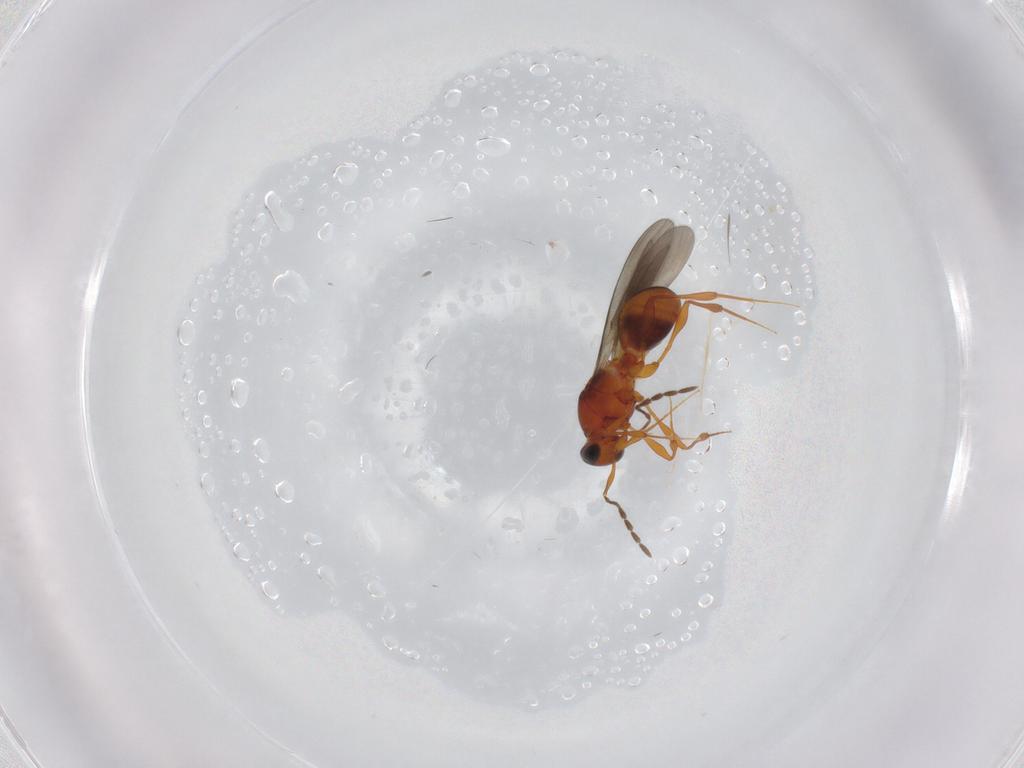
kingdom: Animalia
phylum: Arthropoda
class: Insecta
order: Hymenoptera
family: Platygastridae
